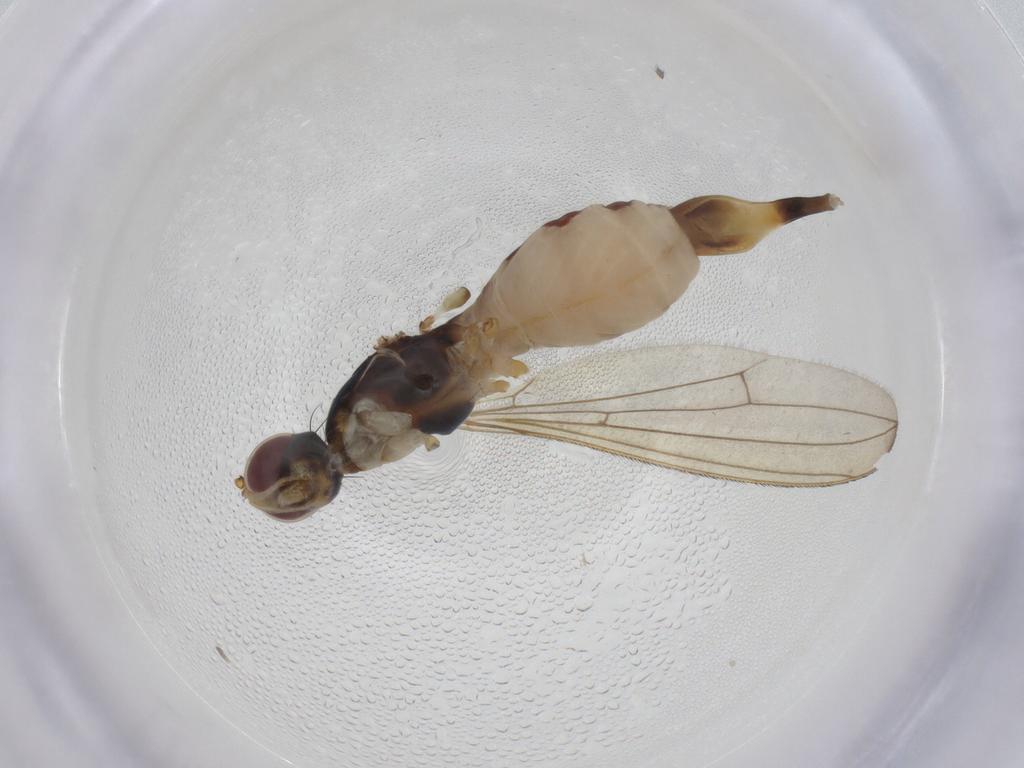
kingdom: Animalia
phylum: Arthropoda
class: Insecta
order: Diptera
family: Micropezidae
